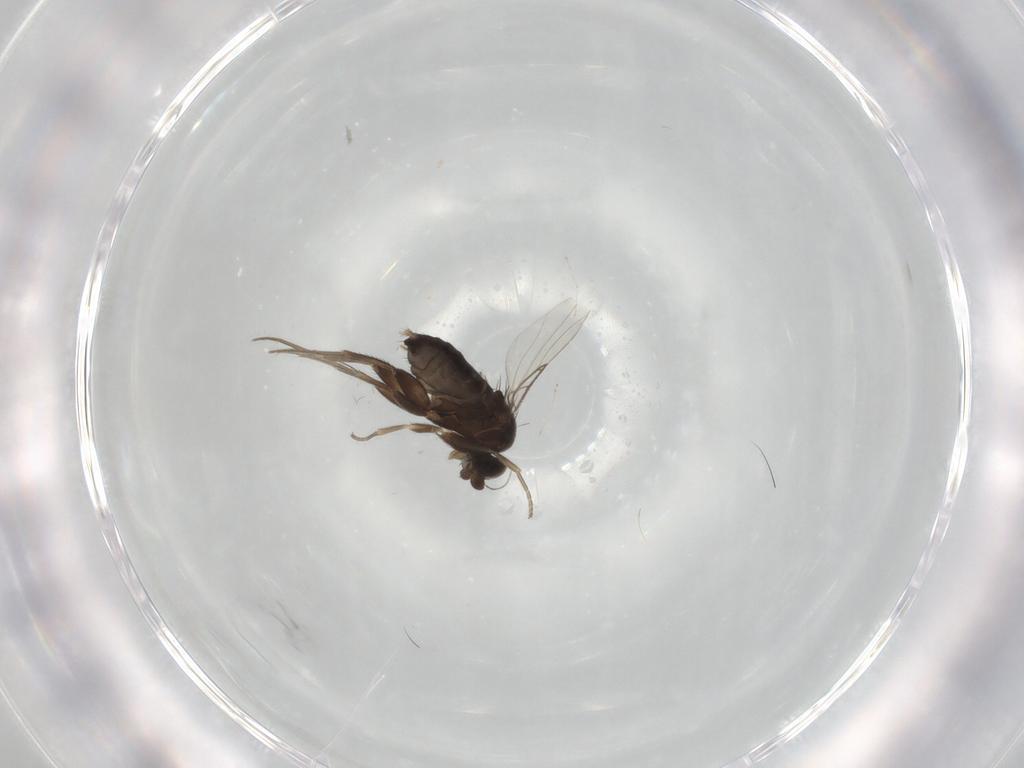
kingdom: Animalia
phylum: Arthropoda
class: Insecta
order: Diptera
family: Phoridae
